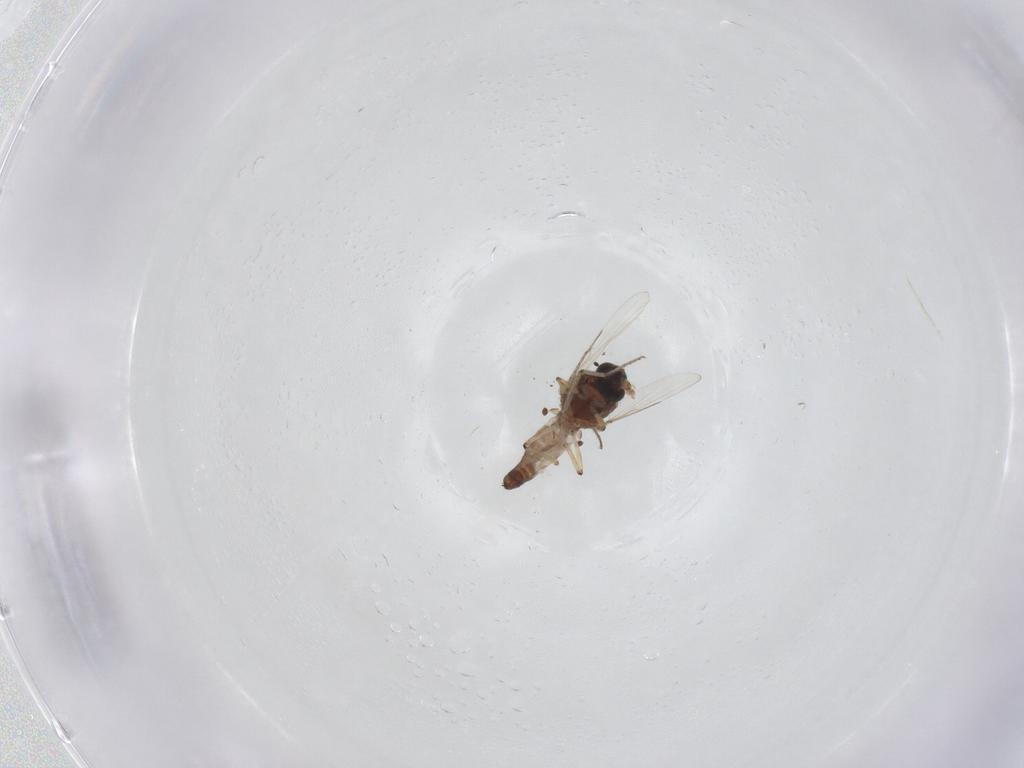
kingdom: Animalia
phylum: Arthropoda
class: Insecta
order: Diptera
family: Ceratopogonidae
